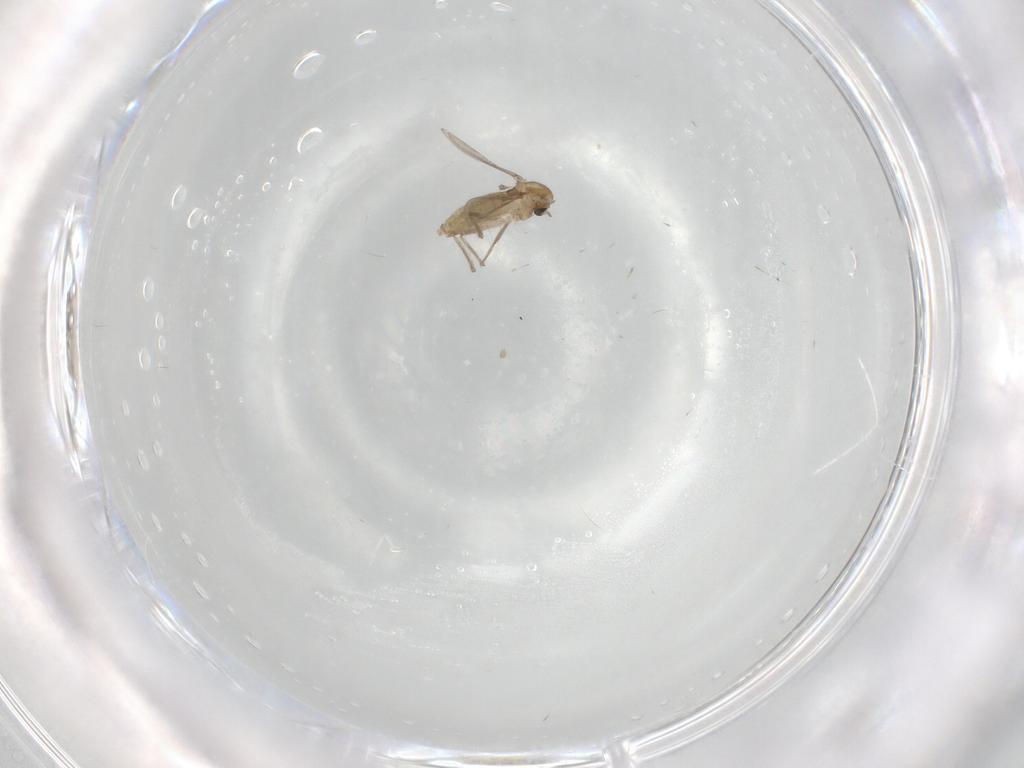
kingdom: Animalia
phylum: Arthropoda
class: Insecta
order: Diptera
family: Chironomidae
